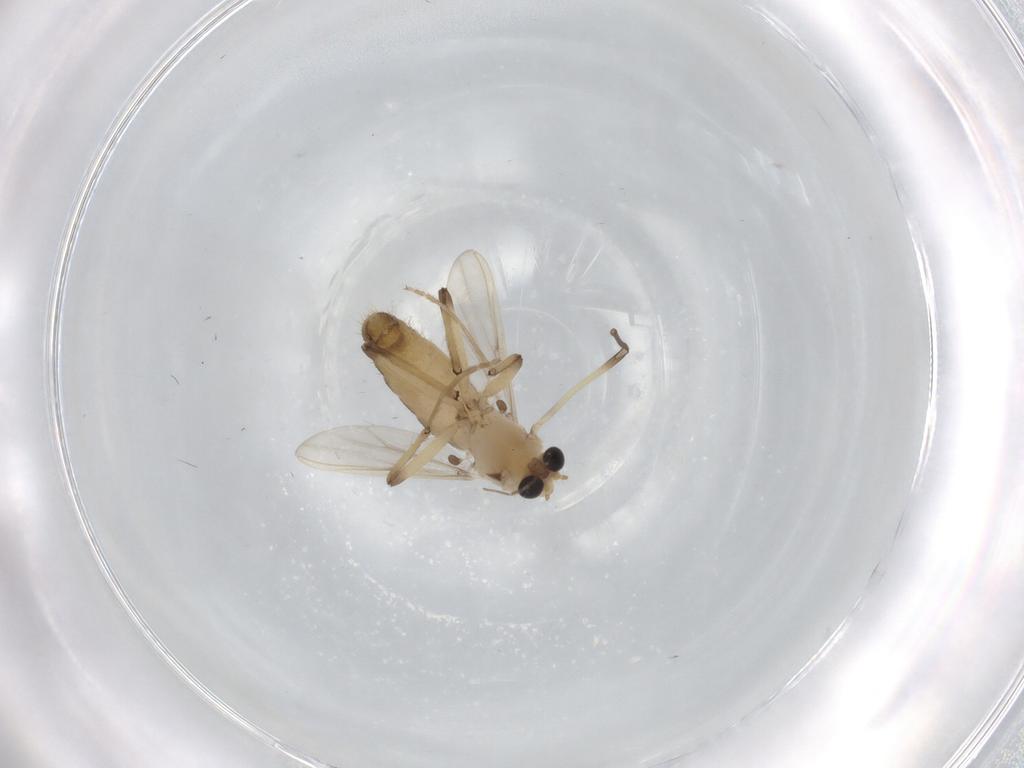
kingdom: Animalia
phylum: Arthropoda
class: Insecta
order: Diptera
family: Chironomidae
